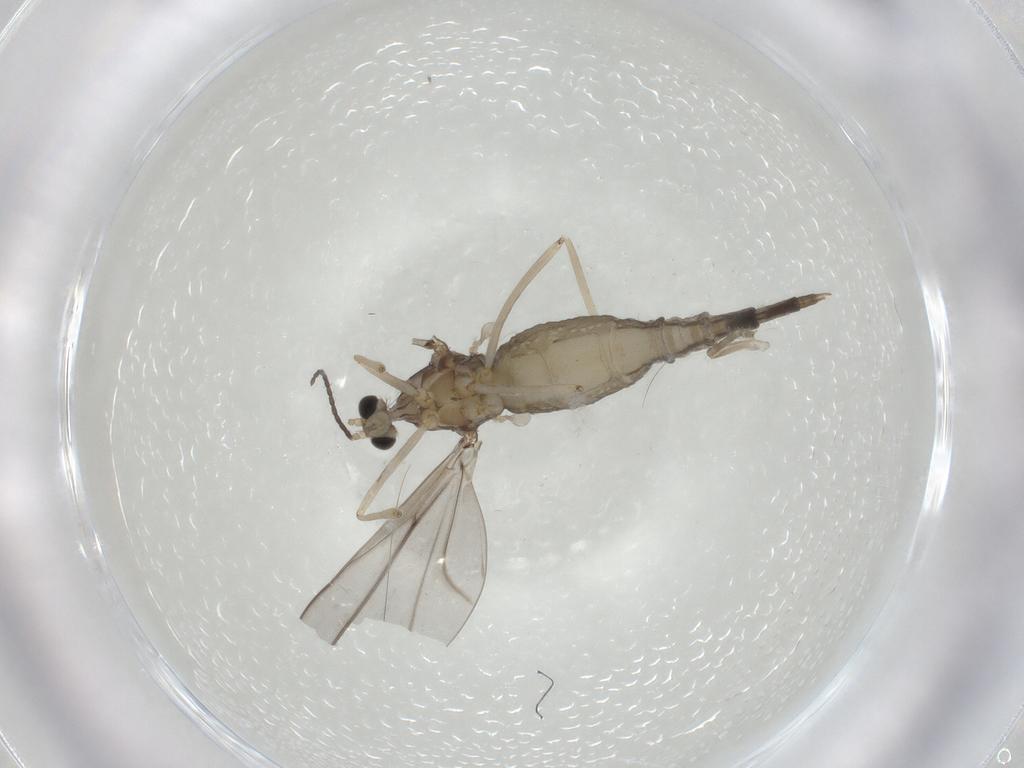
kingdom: Animalia
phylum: Arthropoda
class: Insecta
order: Diptera
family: Cecidomyiidae
